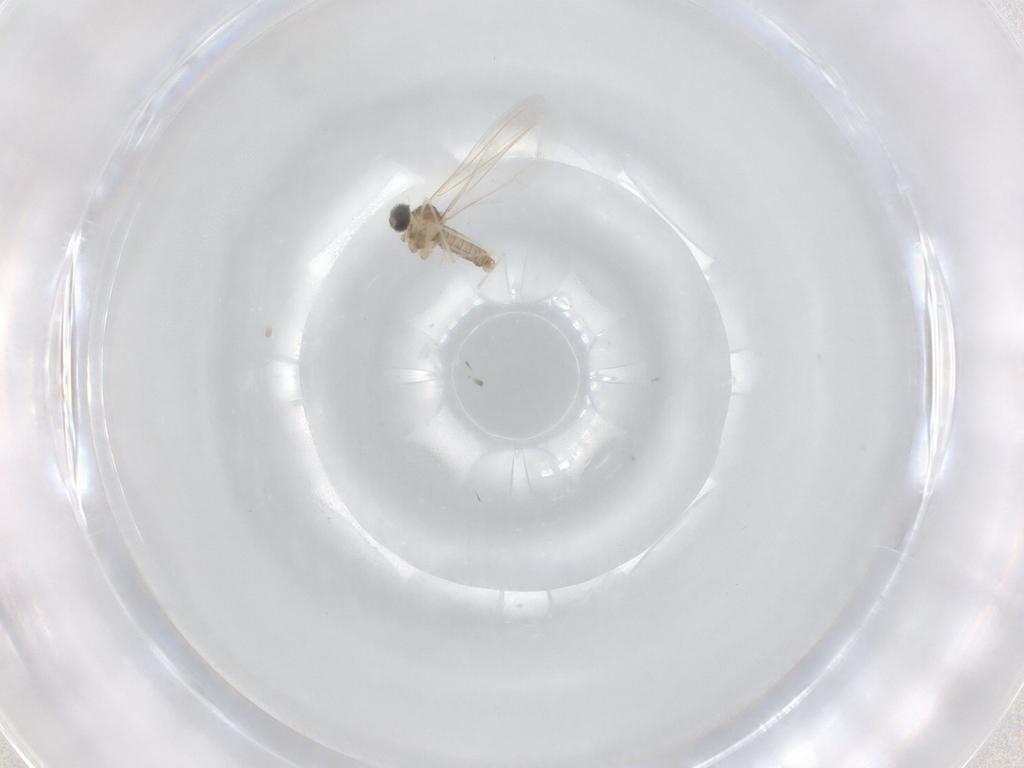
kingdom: Animalia
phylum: Arthropoda
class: Insecta
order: Diptera
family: Cecidomyiidae
